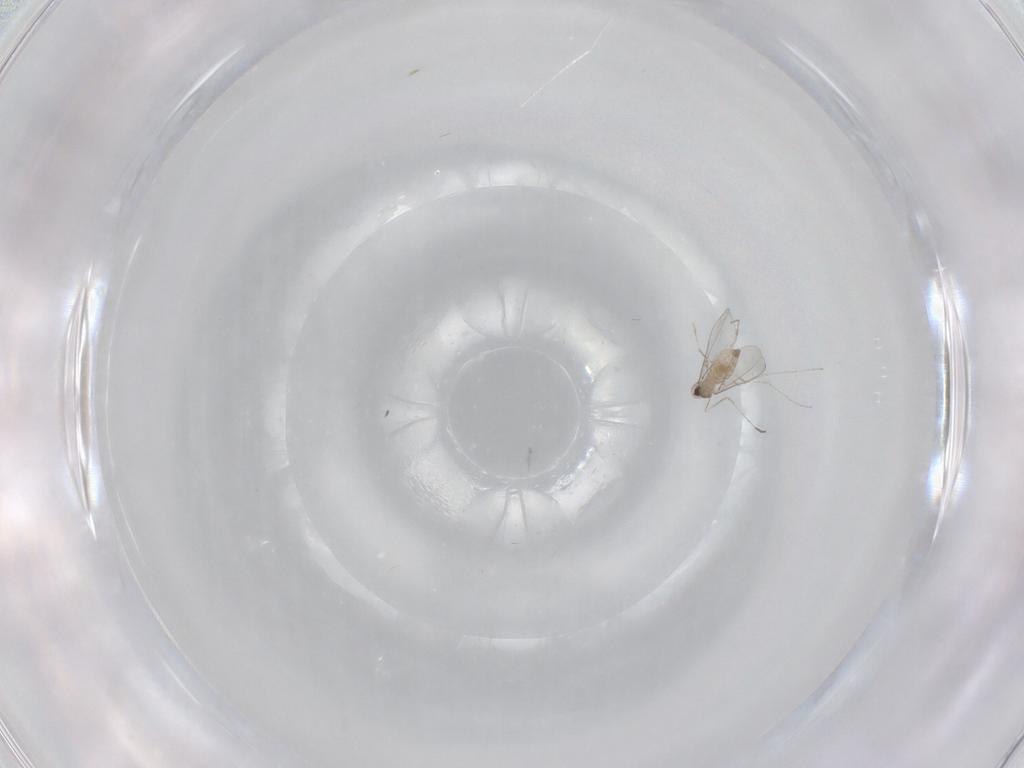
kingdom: Animalia
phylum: Arthropoda
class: Insecta
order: Diptera
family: Cecidomyiidae
